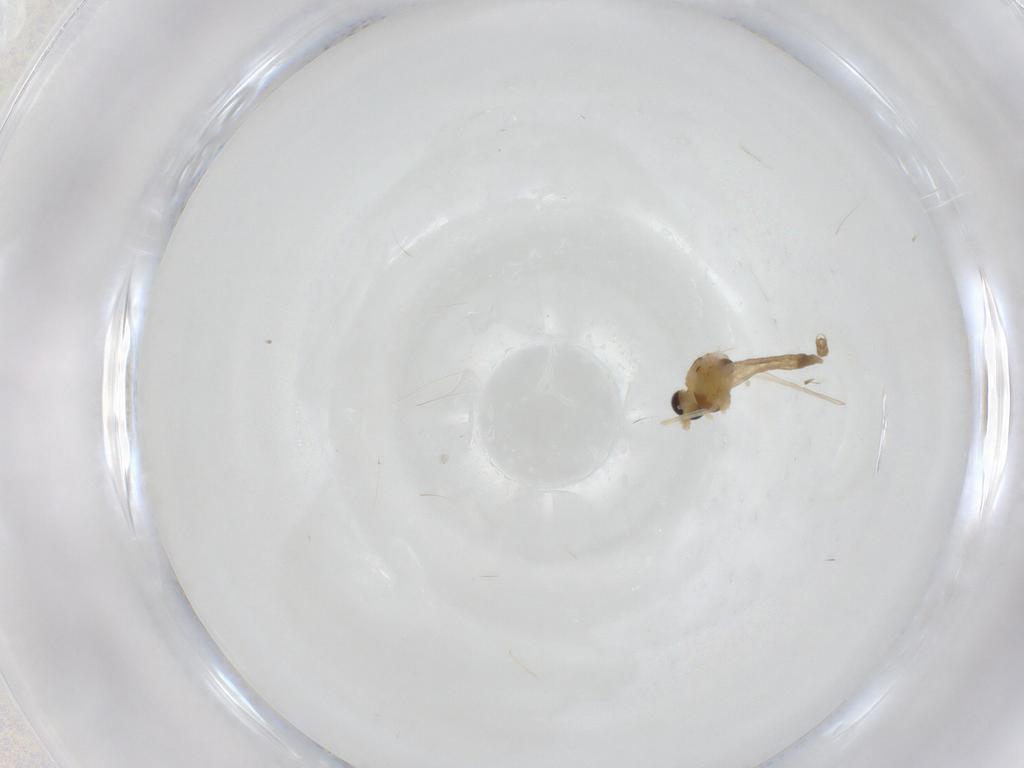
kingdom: Animalia
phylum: Arthropoda
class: Insecta
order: Diptera
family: Chironomidae
